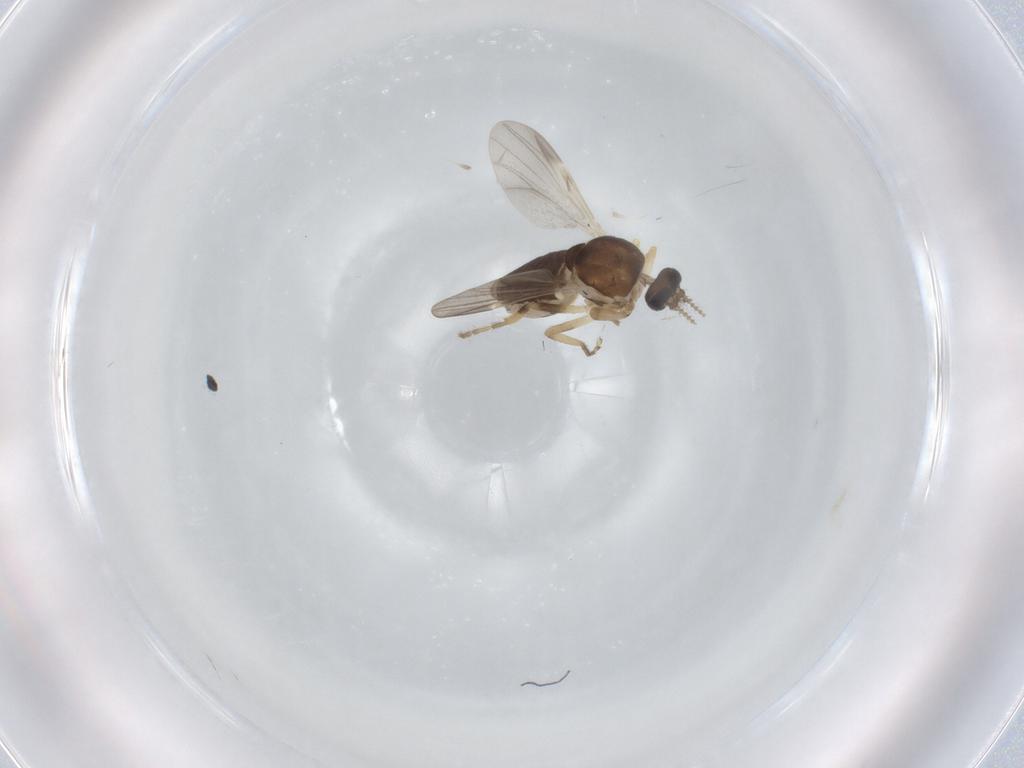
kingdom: Animalia
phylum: Arthropoda
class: Insecta
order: Diptera
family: Ceratopogonidae
